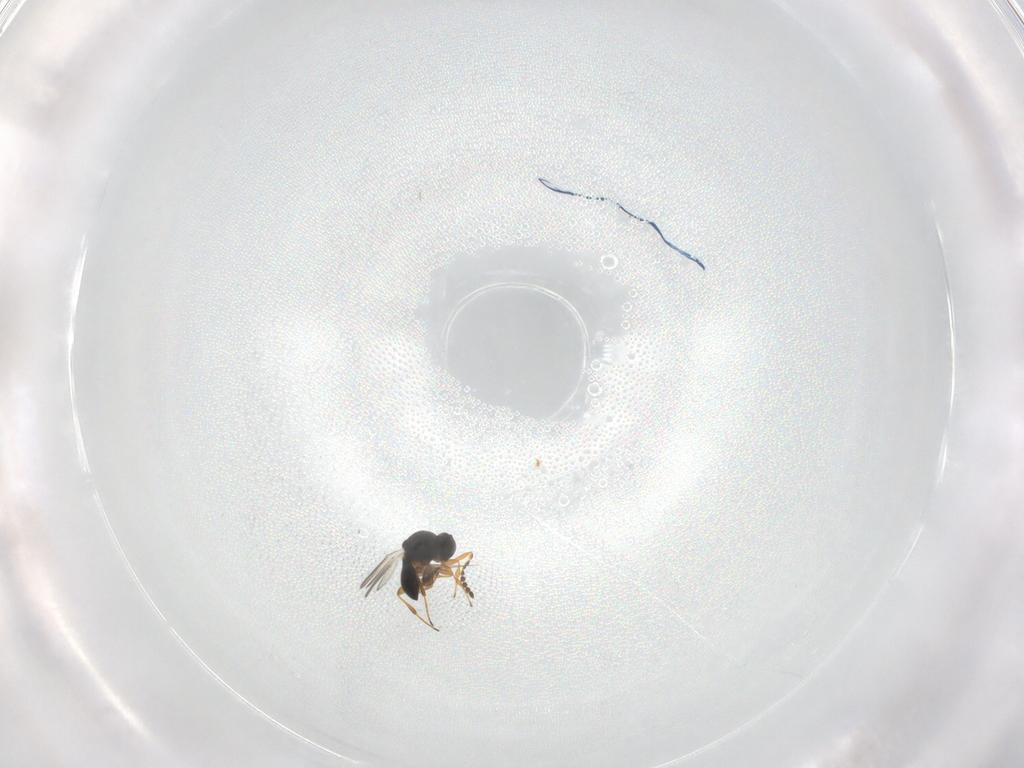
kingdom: Animalia
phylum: Arthropoda
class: Insecta
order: Hymenoptera
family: Platygastridae
